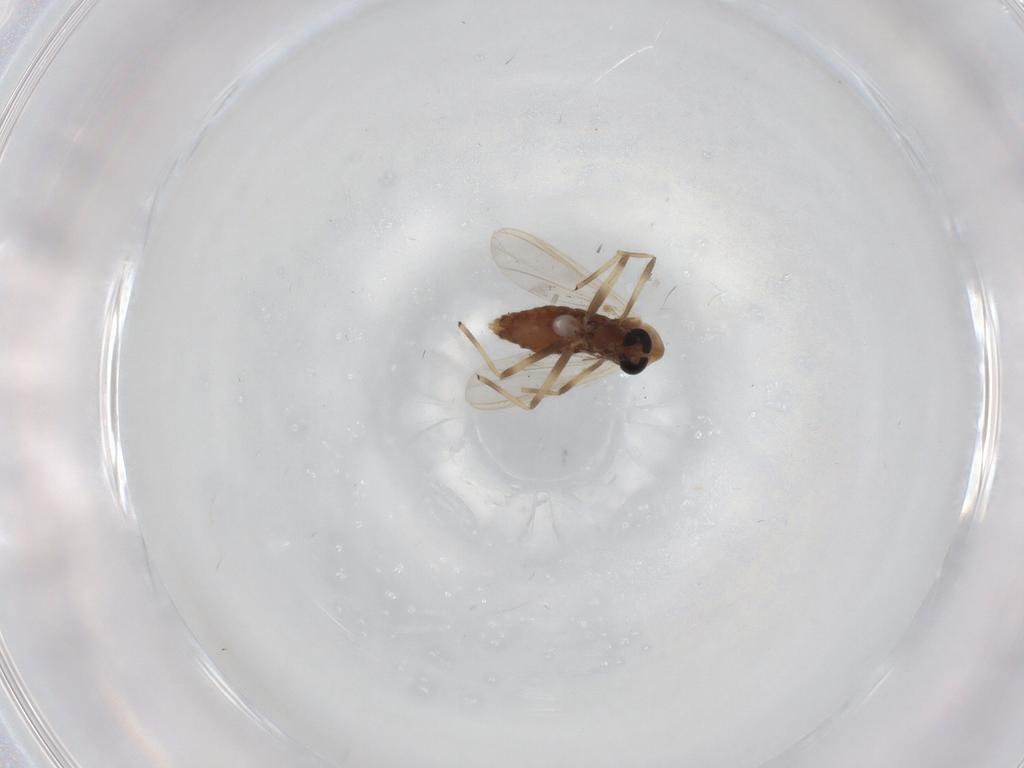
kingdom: Animalia
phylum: Arthropoda
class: Insecta
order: Diptera
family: Chironomidae
